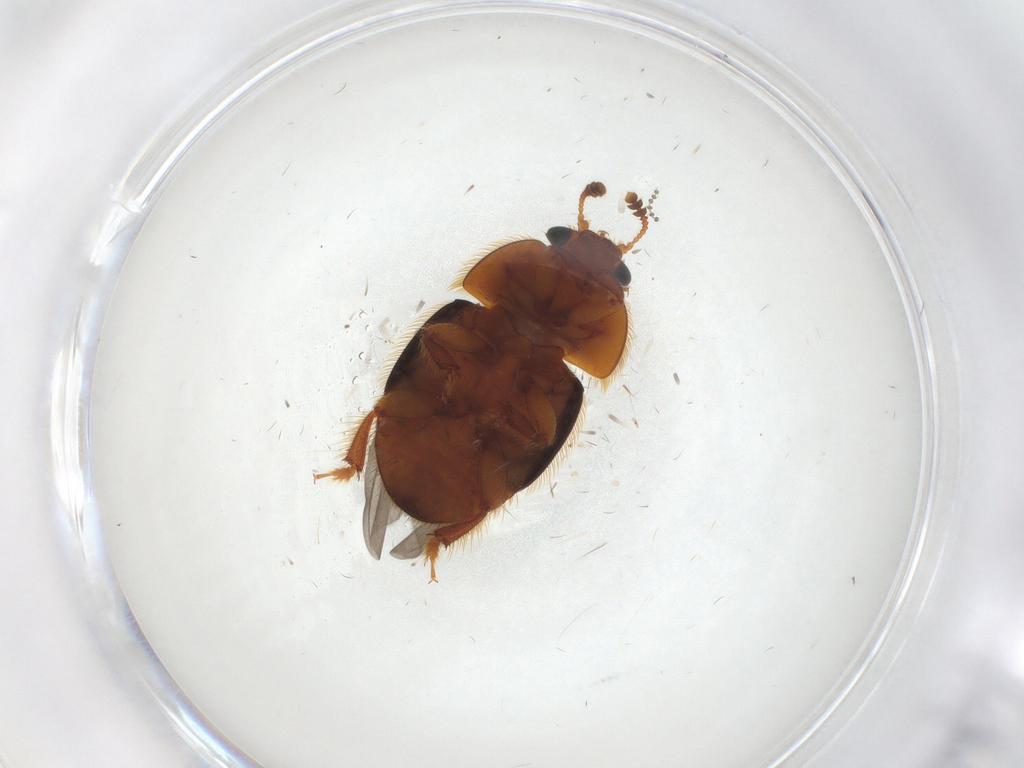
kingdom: Animalia
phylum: Arthropoda
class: Insecta
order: Coleoptera
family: Nitidulidae
